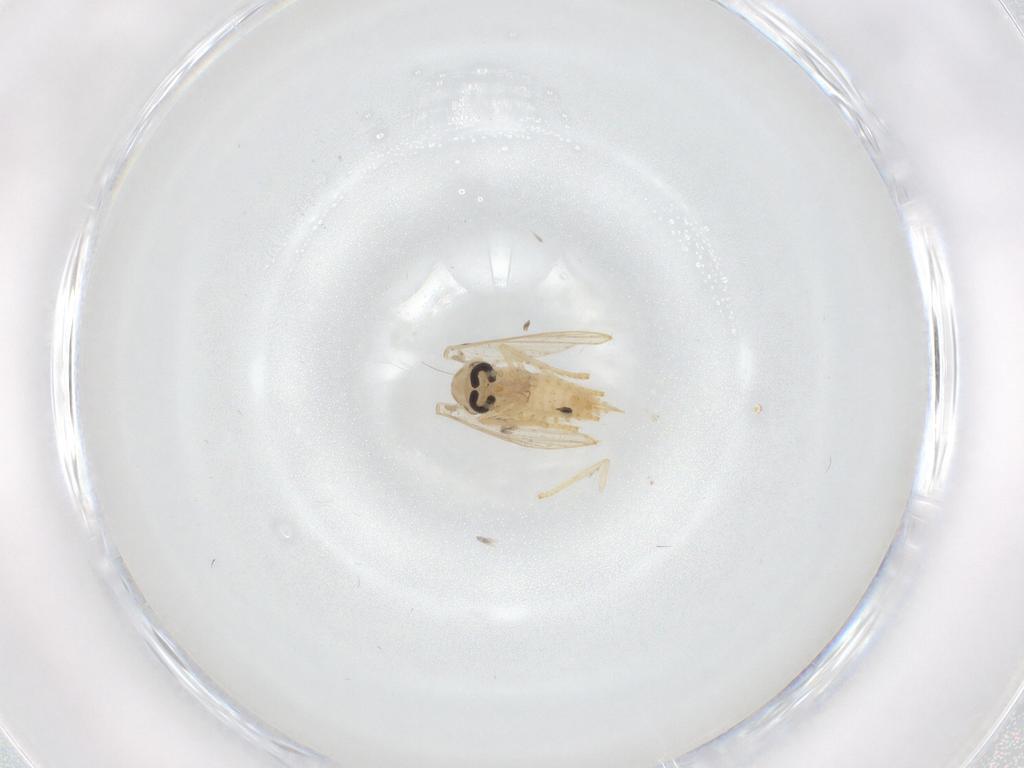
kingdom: Animalia
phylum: Arthropoda
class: Insecta
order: Diptera
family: Psychodidae
